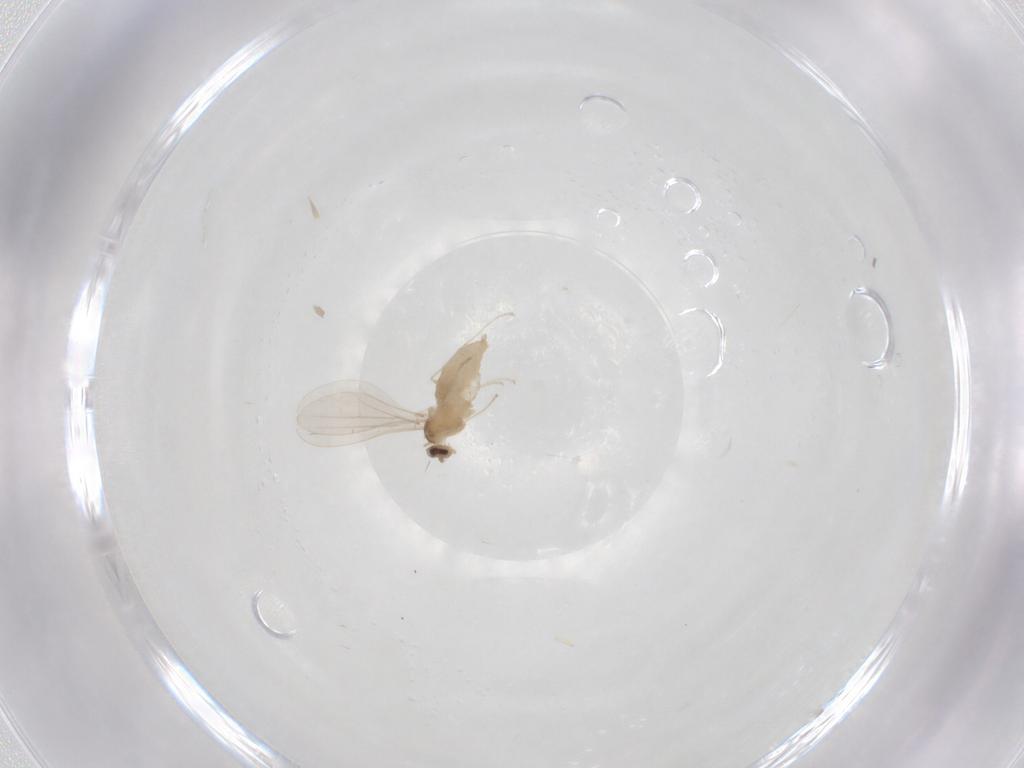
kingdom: Animalia
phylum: Arthropoda
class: Insecta
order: Diptera
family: Cecidomyiidae
